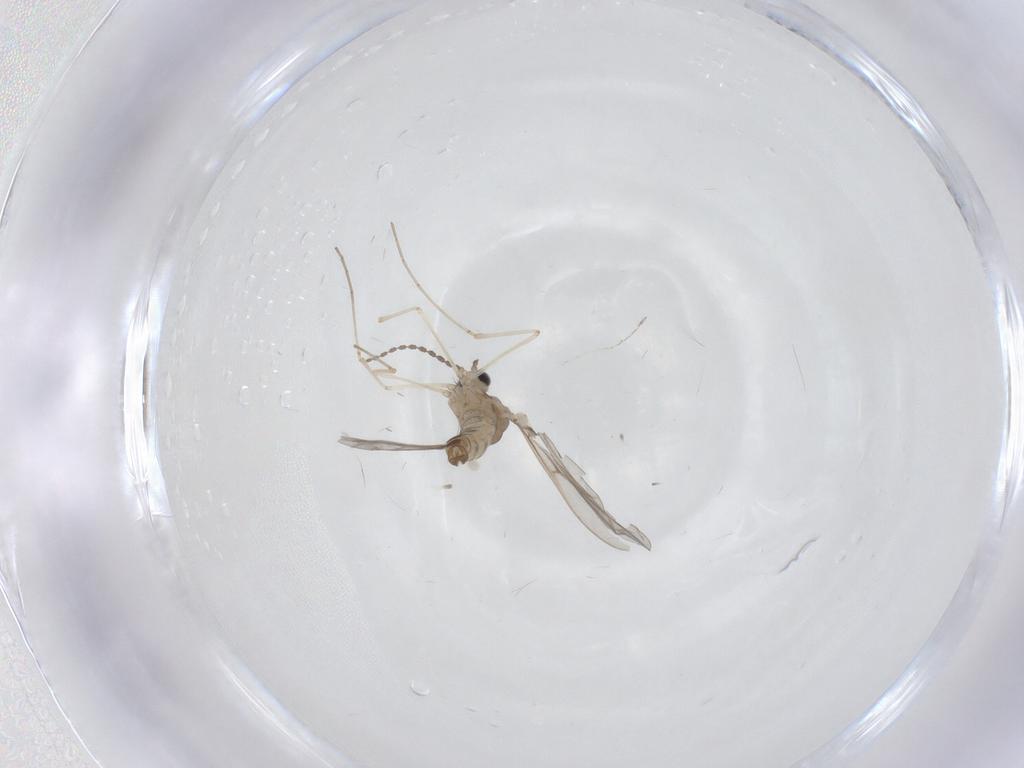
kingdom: Animalia
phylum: Arthropoda
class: Insecta
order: Diptera
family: Cecidomyiidae
